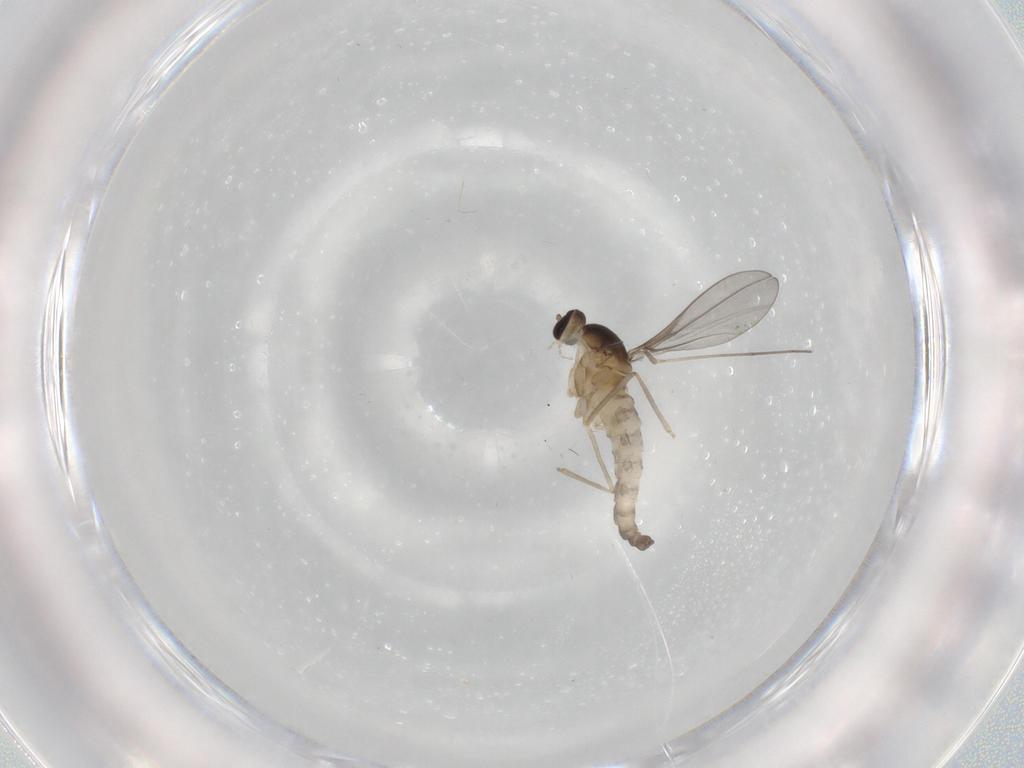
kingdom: Animalia
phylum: Arthropoda
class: Insecta
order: Diptera
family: Cecidomyiidae
